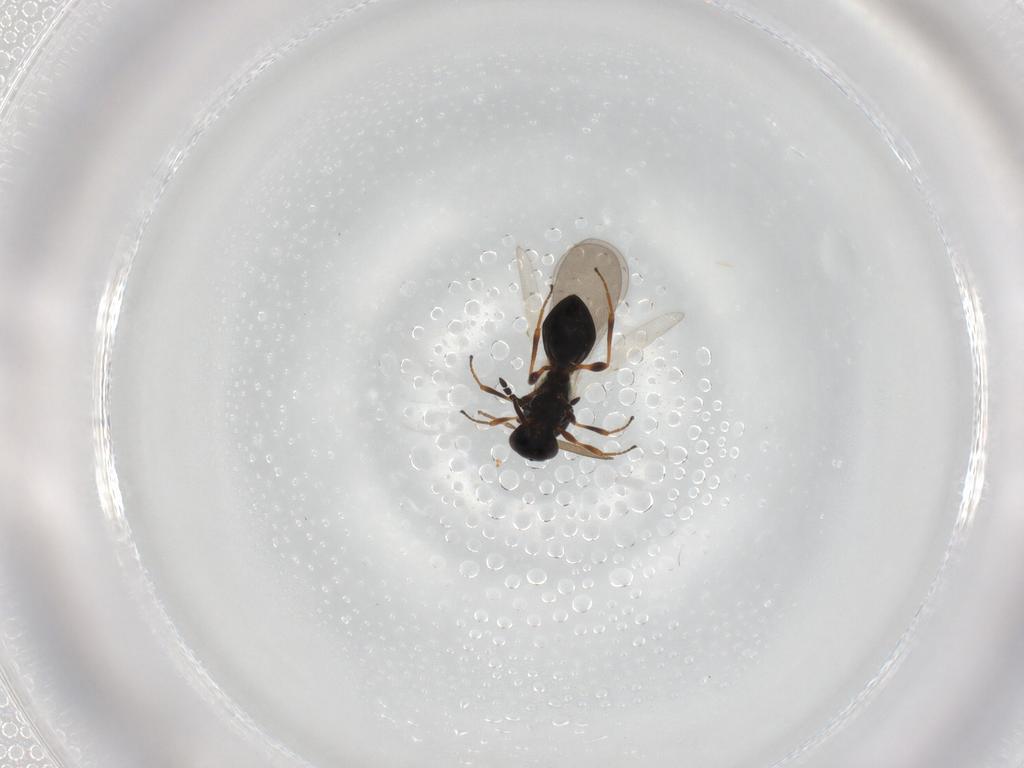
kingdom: Animalia
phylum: Arthropoda
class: Insecta
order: Hymenoptera
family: Platygastridae
